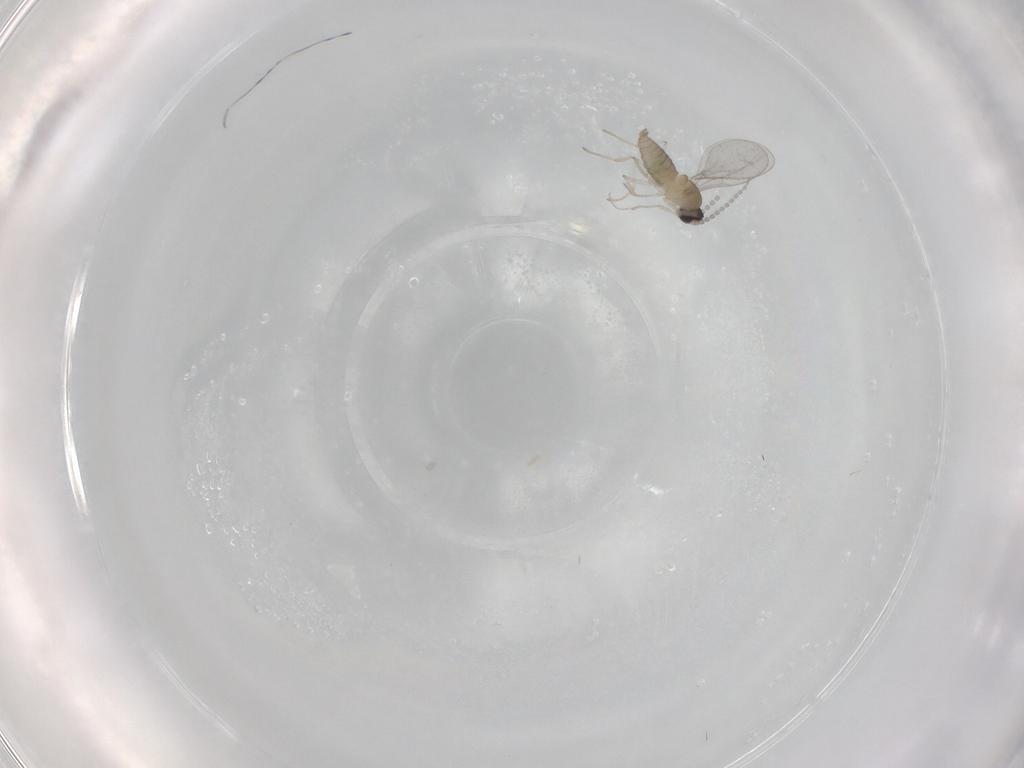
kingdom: Animalia
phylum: Arthropoda
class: Insecta
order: Diptera
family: Cecidomyiidae
